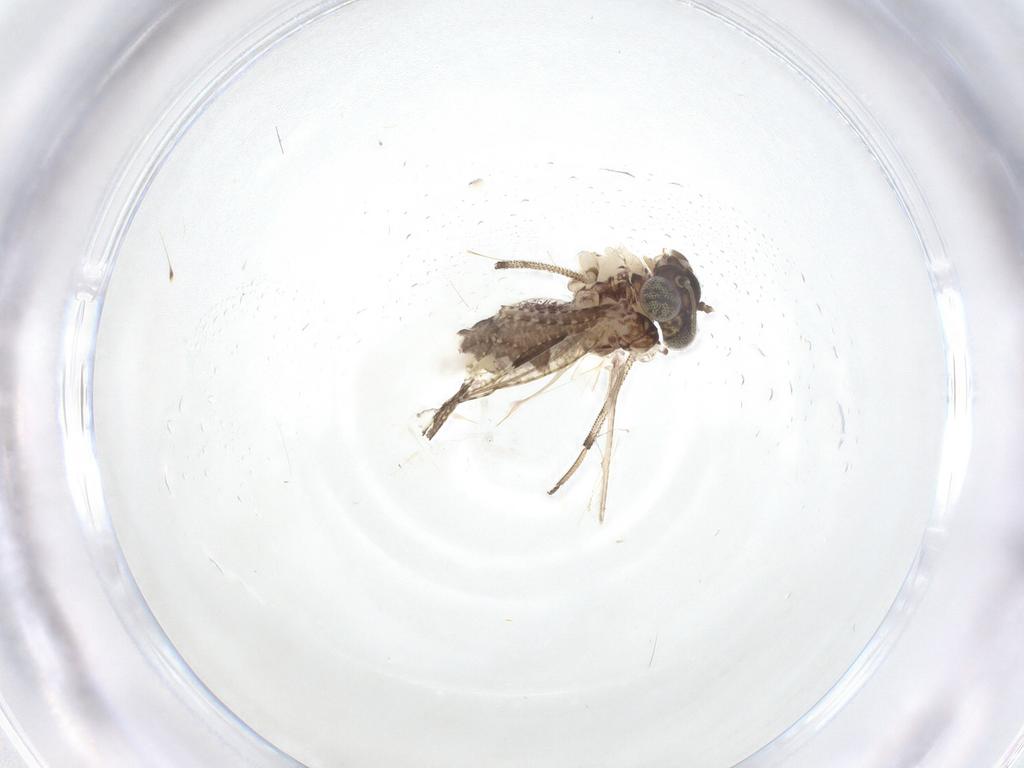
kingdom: Animalia
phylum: Arthropoda
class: Insecta
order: Diptera
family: Cecidomyiidae
